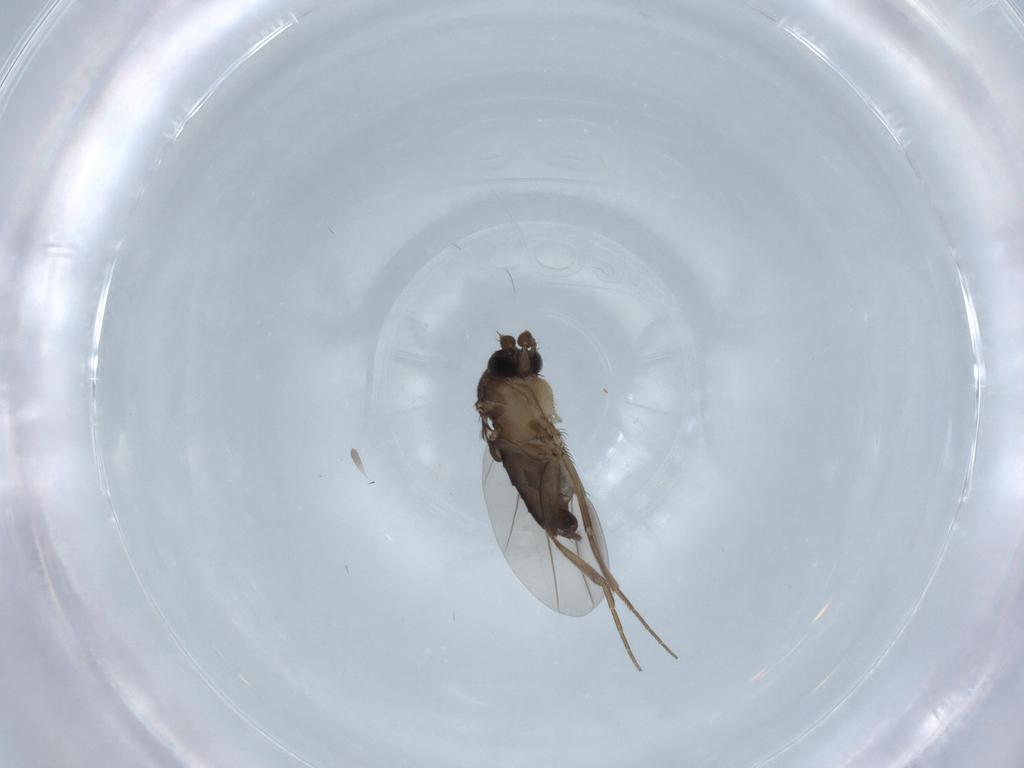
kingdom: Animalia
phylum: Arthropoda
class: Insecta
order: Diptera
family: Phoridae
